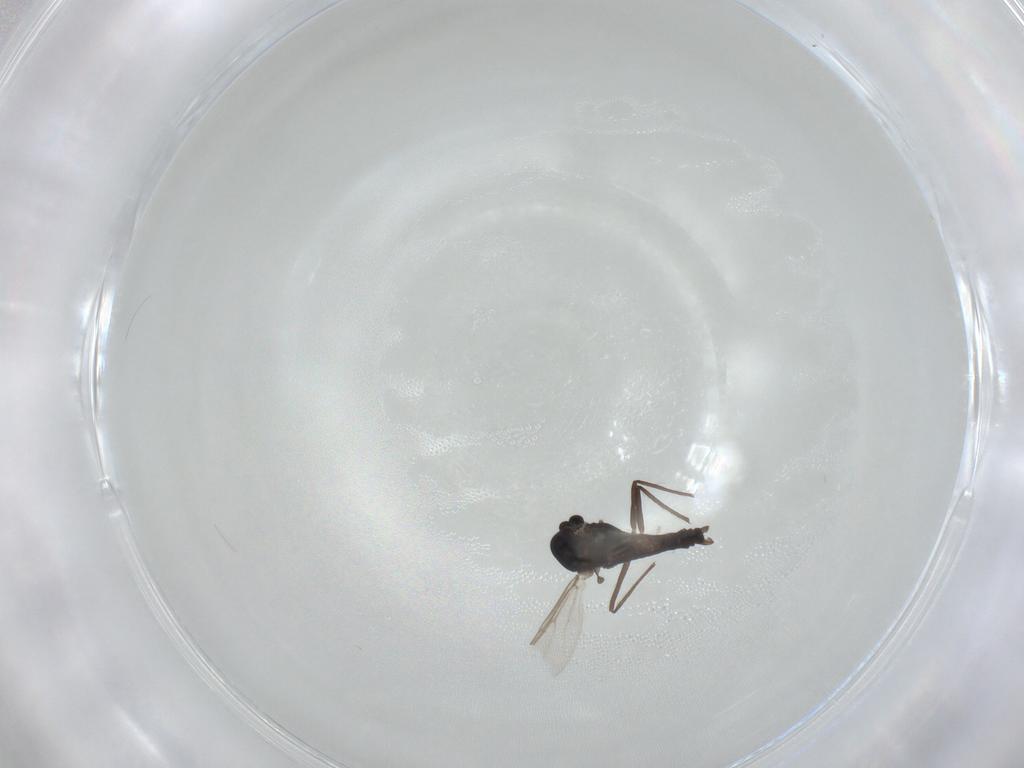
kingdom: Animalia
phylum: Arthropoda
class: Insecta
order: Diptera
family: Chironomidae
